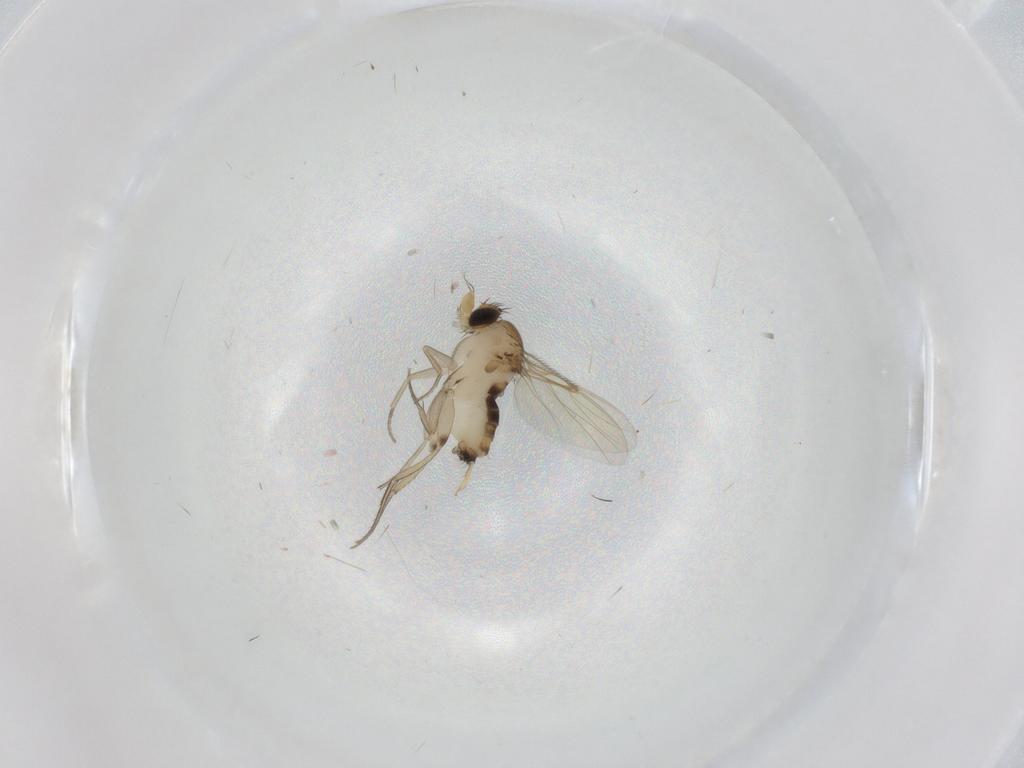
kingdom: Animalia
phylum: Arthropoda
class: Insecta
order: Diptera
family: Phoridae
